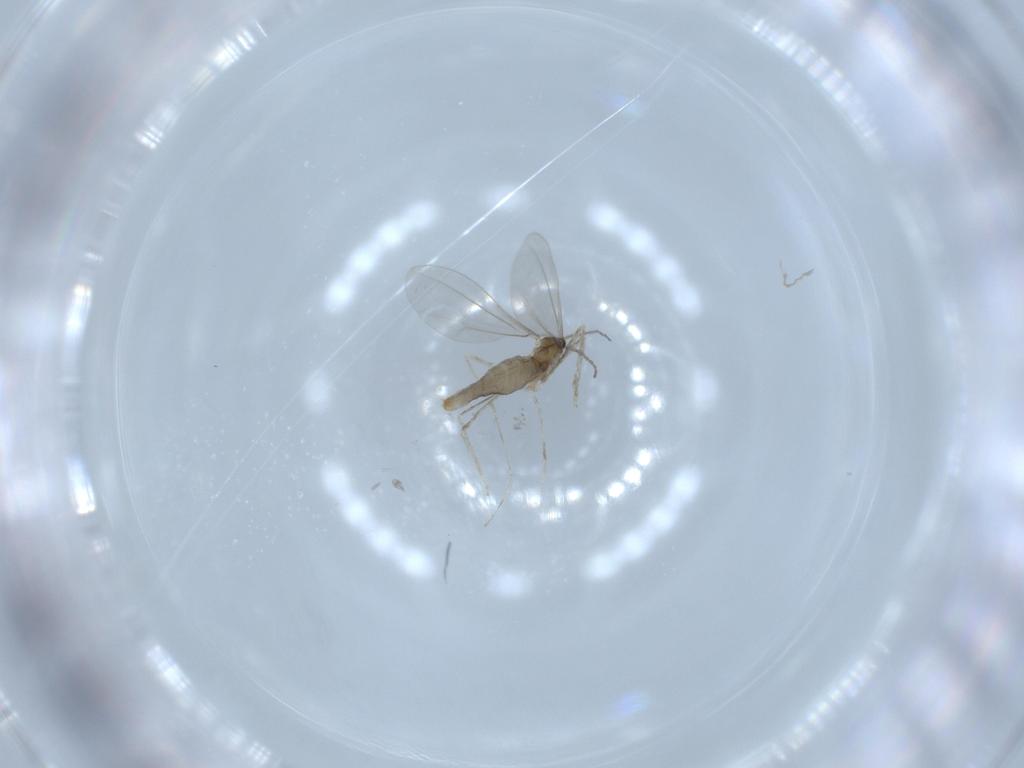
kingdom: Animalia
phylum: Arthropoda
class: Insecta
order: Diptera
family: Cecidomyiidae
